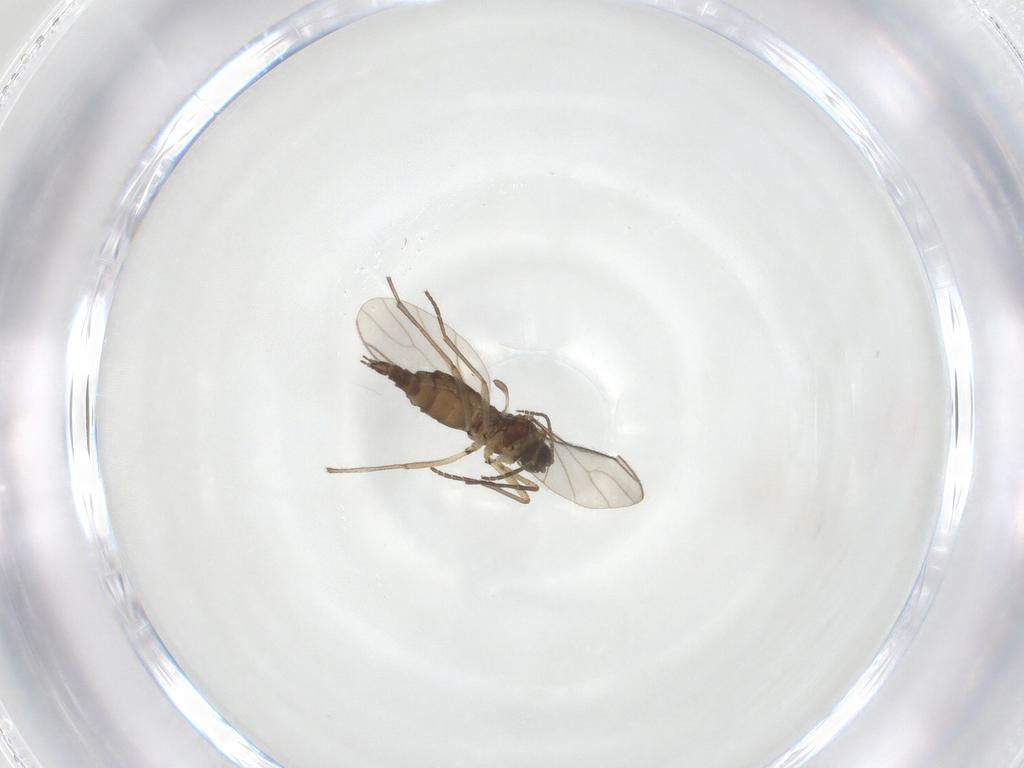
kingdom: Animalia
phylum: Arthropoda
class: Insecta
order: Diptera
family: Sciaridae
